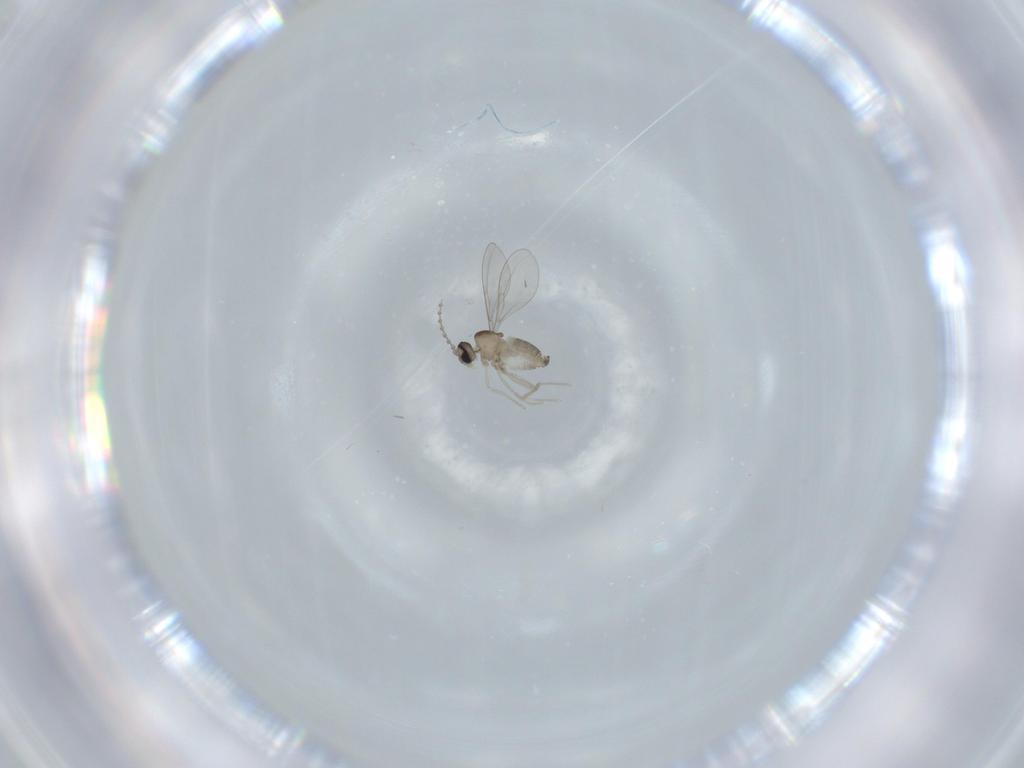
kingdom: Animalia
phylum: Arthropoda
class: Insecta
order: Diptera
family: Cecidomyiidae
